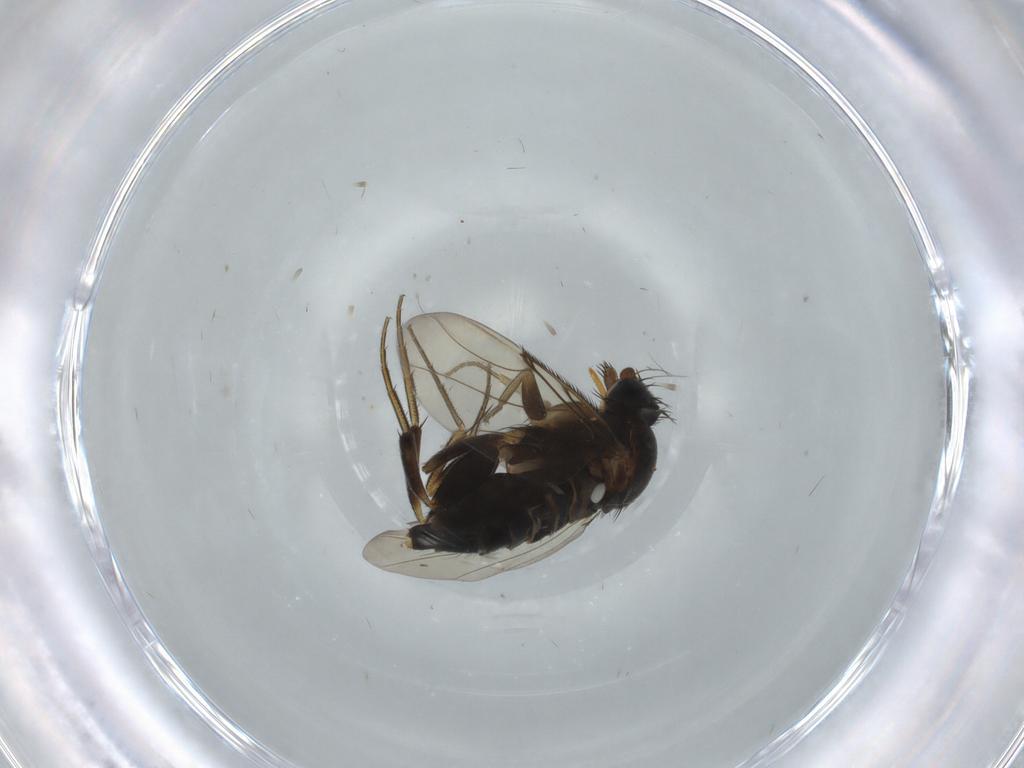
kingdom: Animalia
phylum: Arthropoda
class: Insecta
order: Diptera
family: Phoridae
